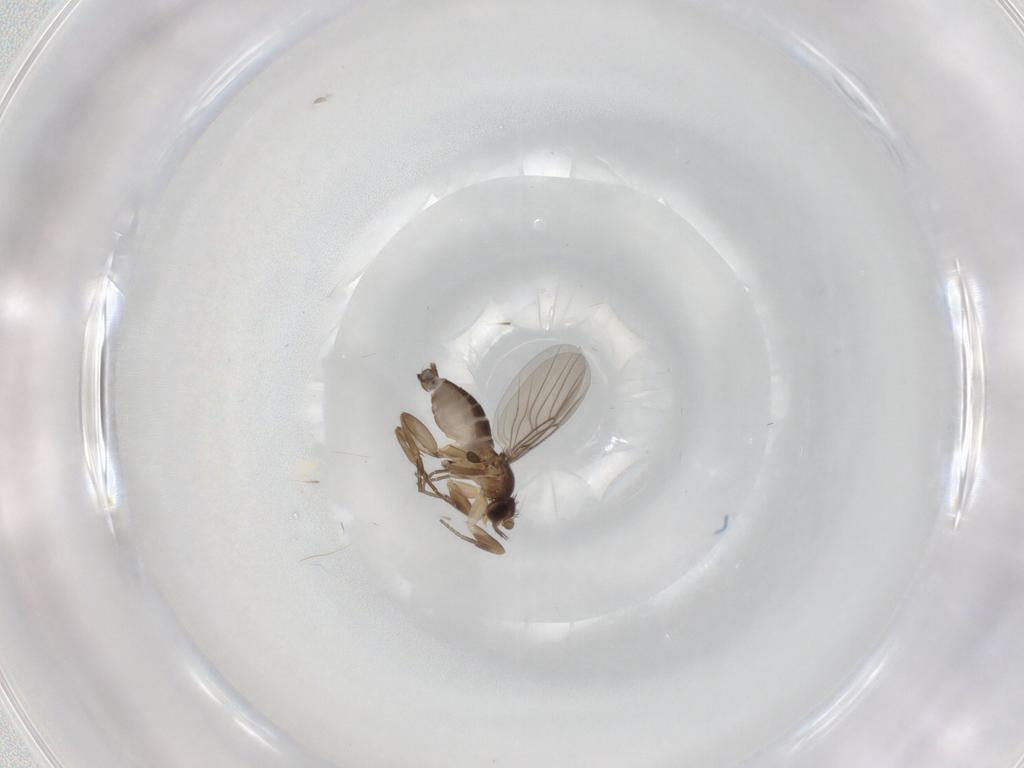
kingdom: Animalia
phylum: Arthropoda
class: Insecta
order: Diptera
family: Phoridae
